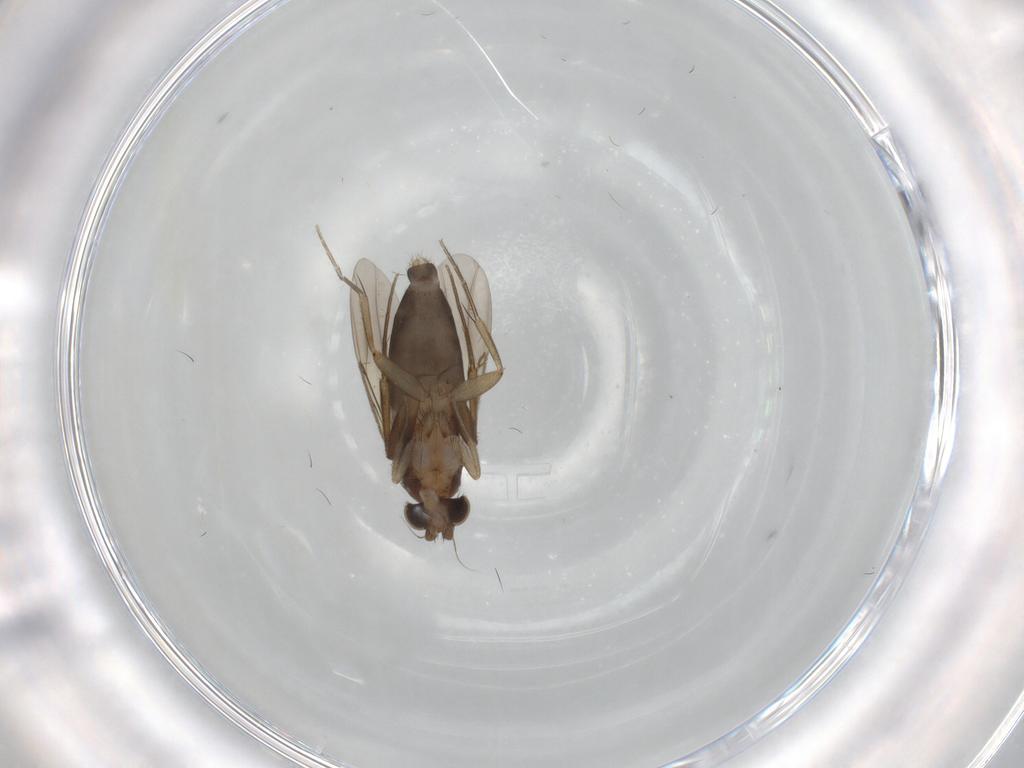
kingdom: Animalia
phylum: Arthropoda
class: Insecta
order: Diptera
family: Phoridae
